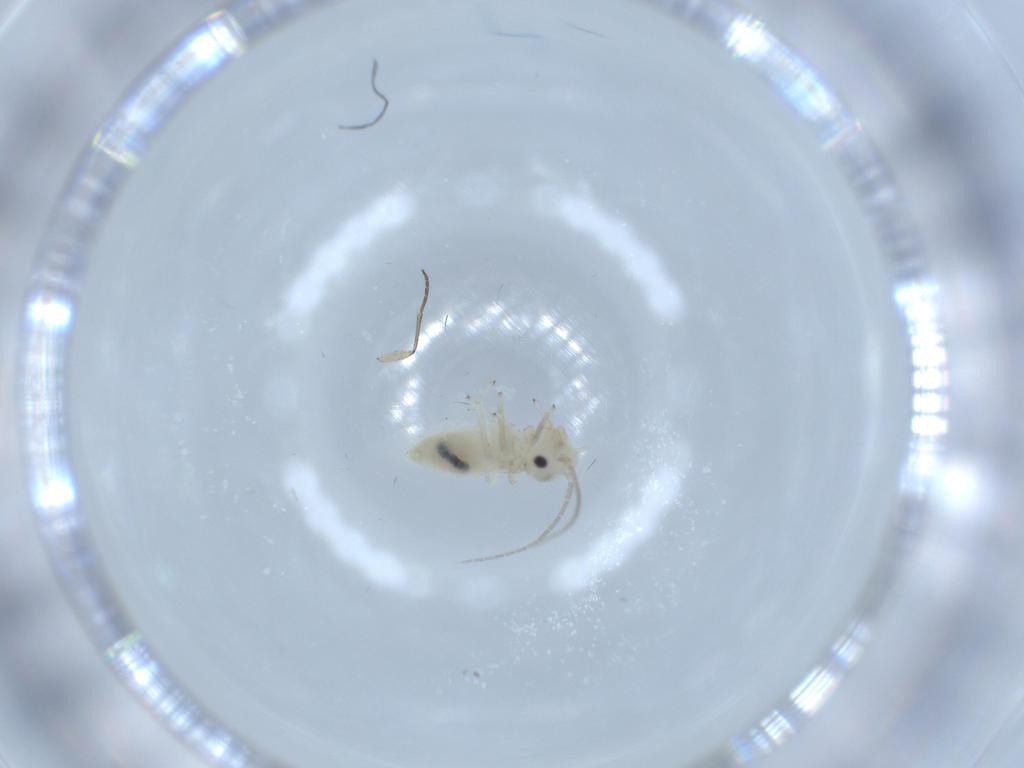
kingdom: Animalia
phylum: Arthropoda
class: Insecta
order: Psocodea
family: Caeciliusidae
